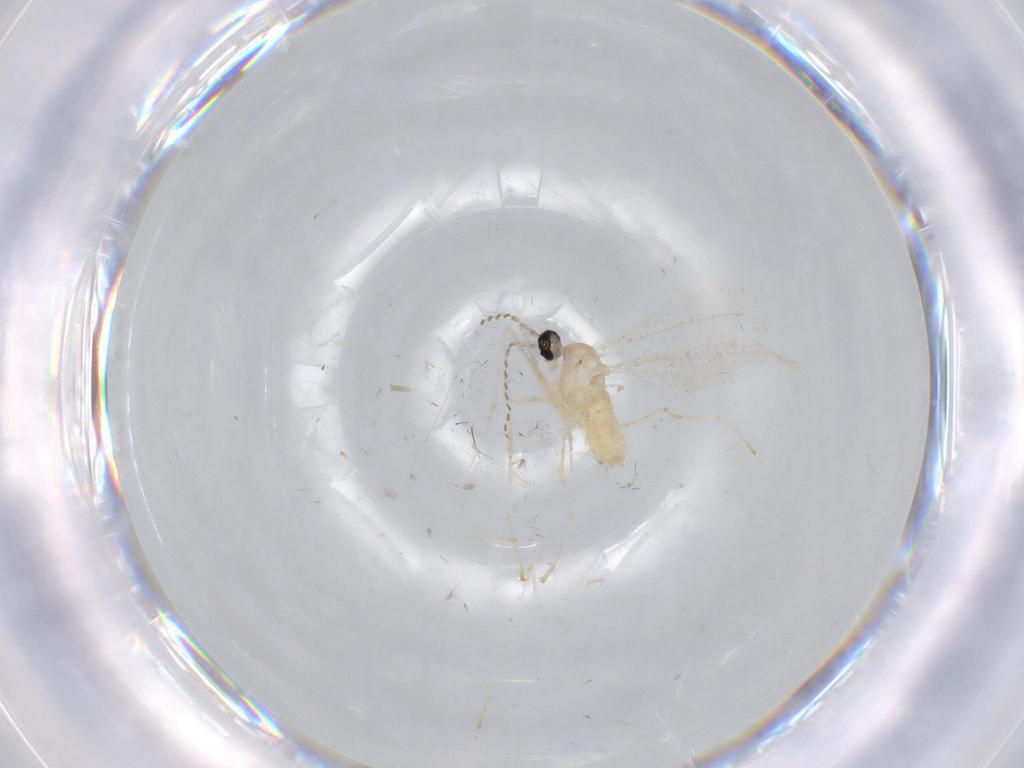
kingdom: Animalia
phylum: Arthropoda
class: Insecta
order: Diptera
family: Cecidomyiidae
